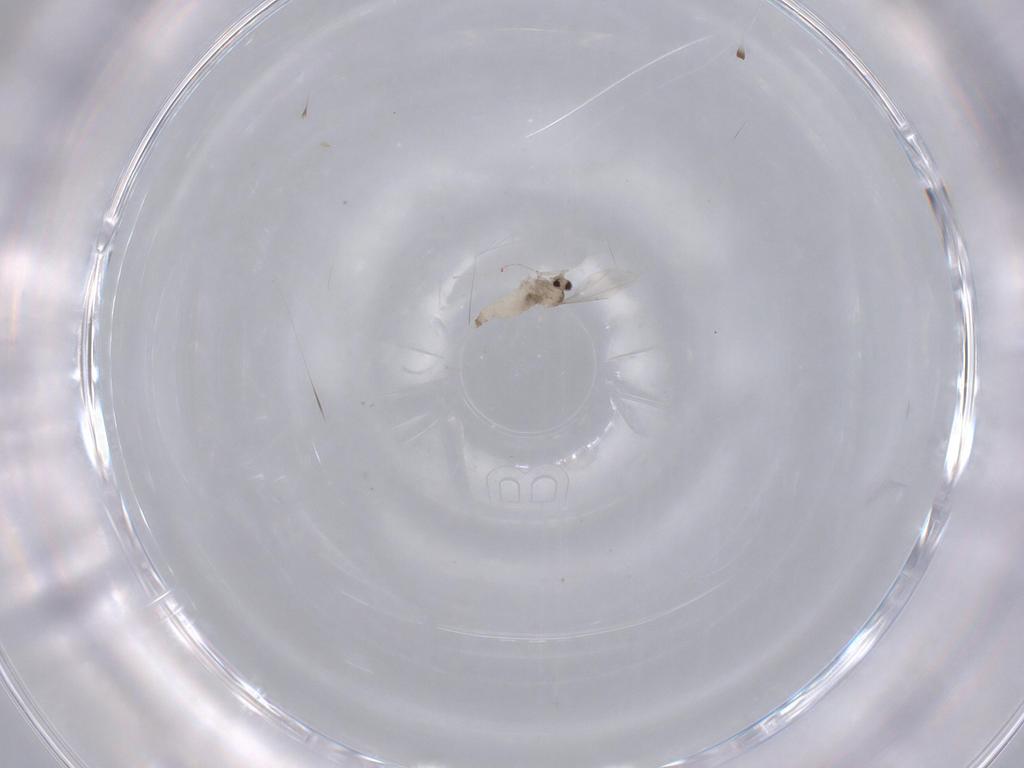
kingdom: Animalia
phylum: Arthropoda
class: Insecta
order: Diptera
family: Cecidomyiidae
